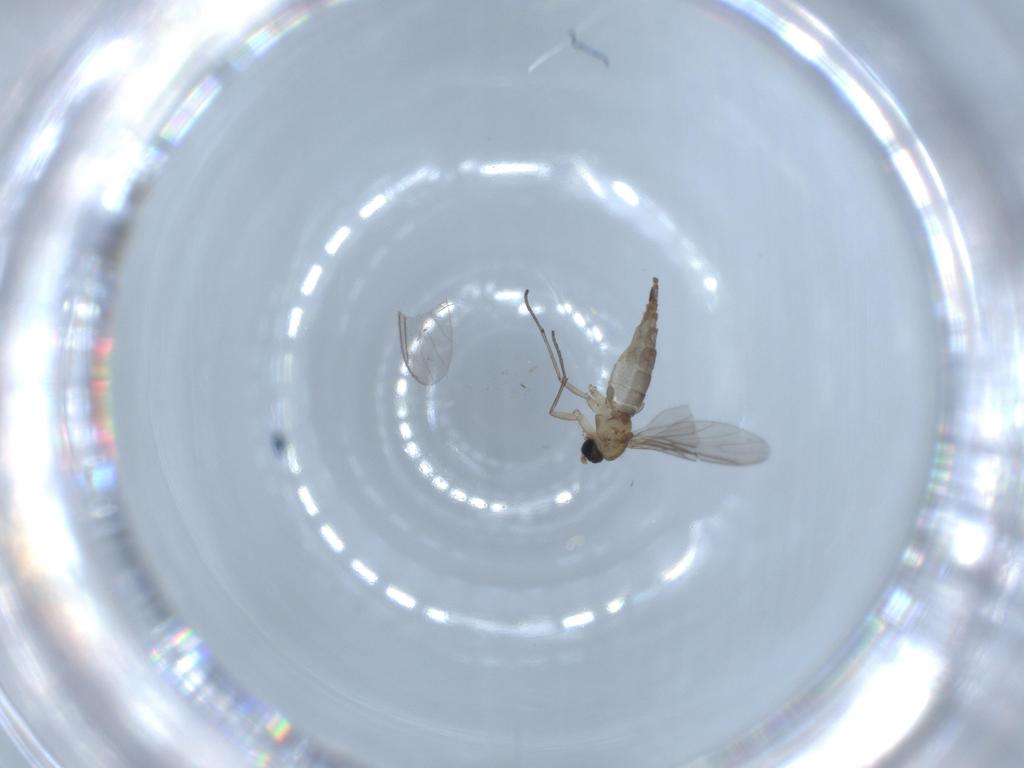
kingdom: Animalia
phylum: Arthropoda
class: Insecta
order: Diptera
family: Sciaridae
